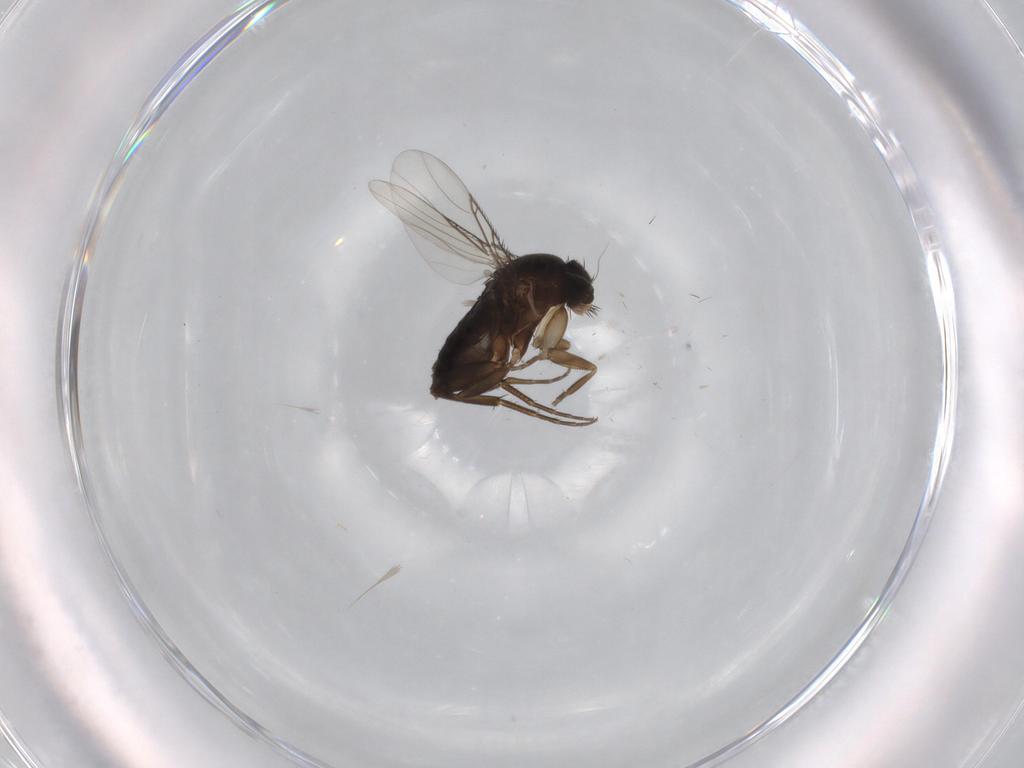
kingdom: Animalia
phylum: Arthropoda
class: Insecta
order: Diptera
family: Phoridae
